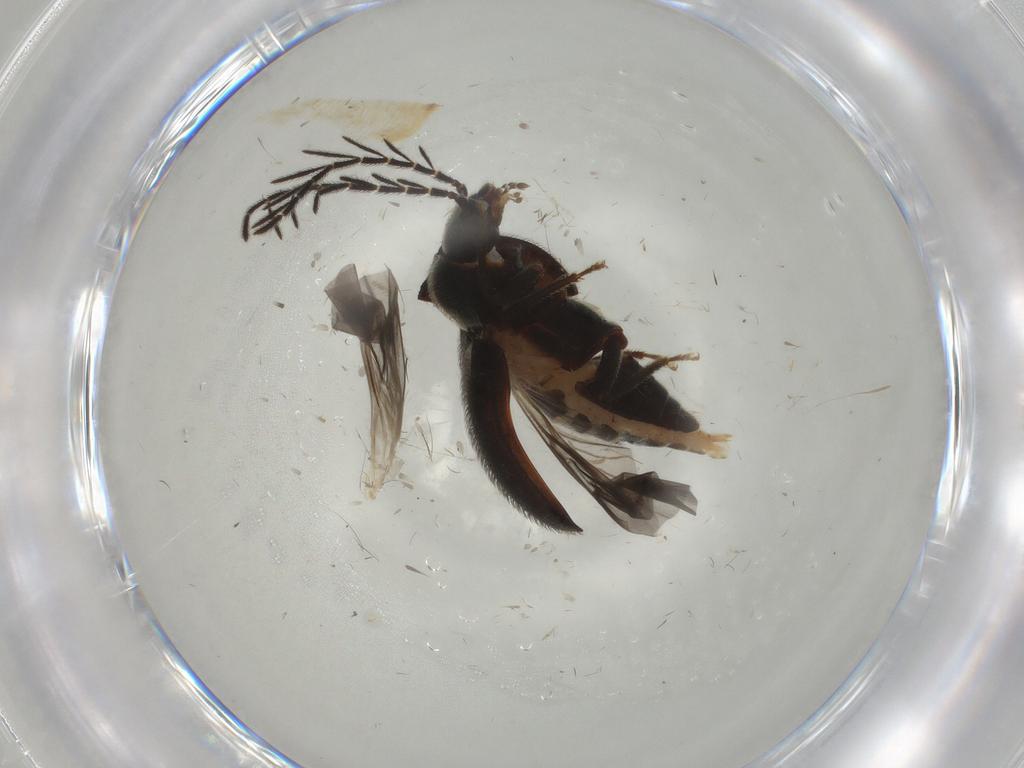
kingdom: Animalia
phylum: Arthropoda
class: Insecta
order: Coleoptera
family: Ptilodactylidae
